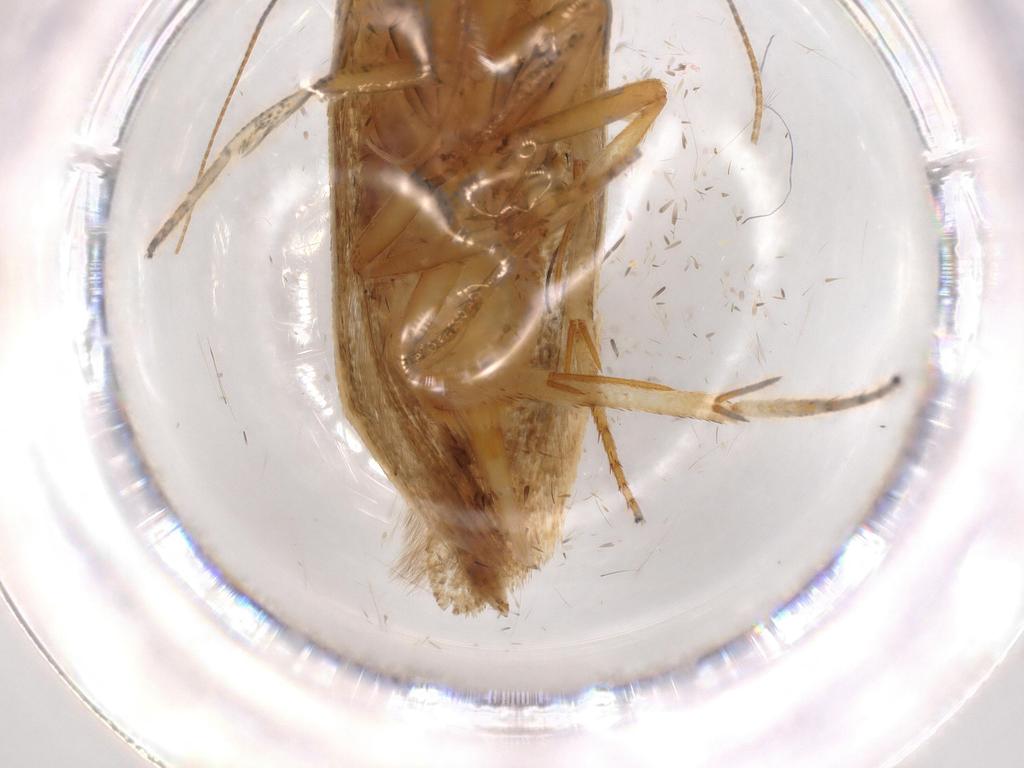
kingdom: Animalia
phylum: Arthropoda
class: Insecta
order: Lepidoptera
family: Blastobasidae
